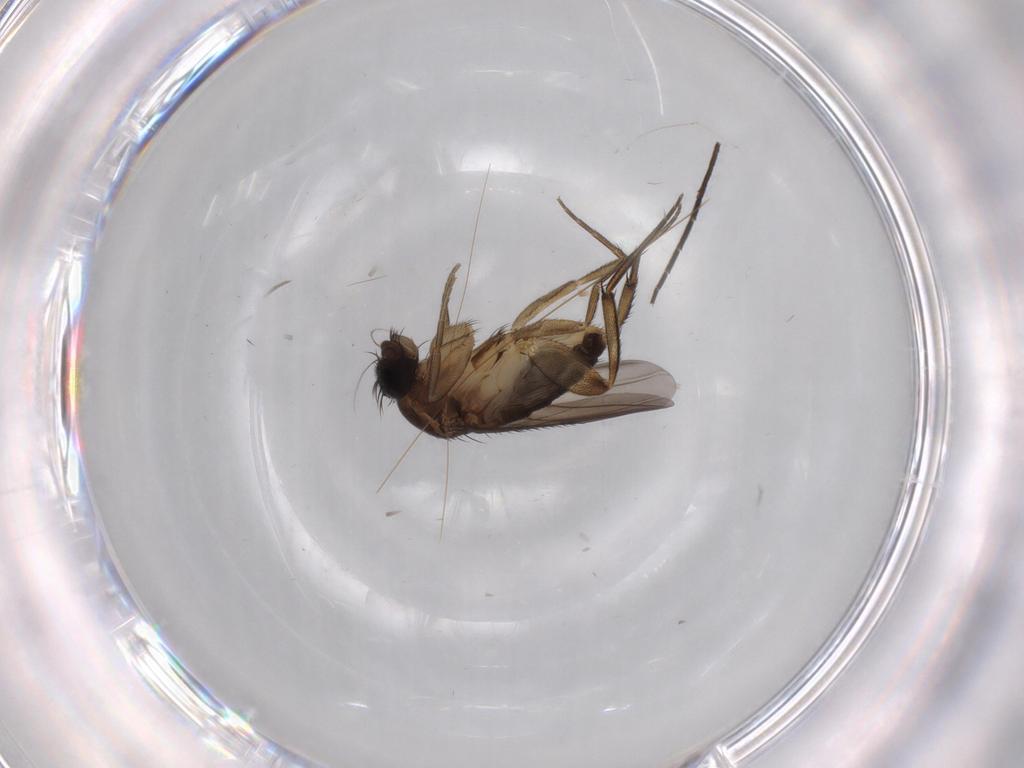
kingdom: Animalia
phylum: Arthropoda
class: Insecta
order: Diptera
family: Phoridae
